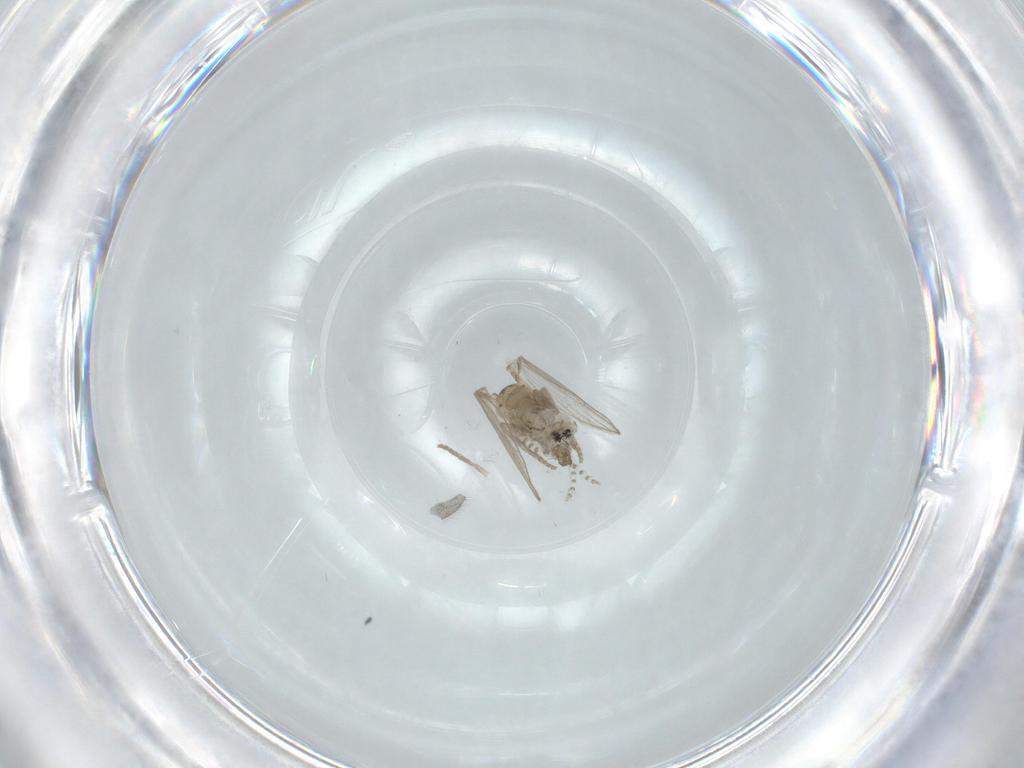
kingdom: Animalia
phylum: Arthropoda
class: Insecta
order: Diptera
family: Psychodidae
